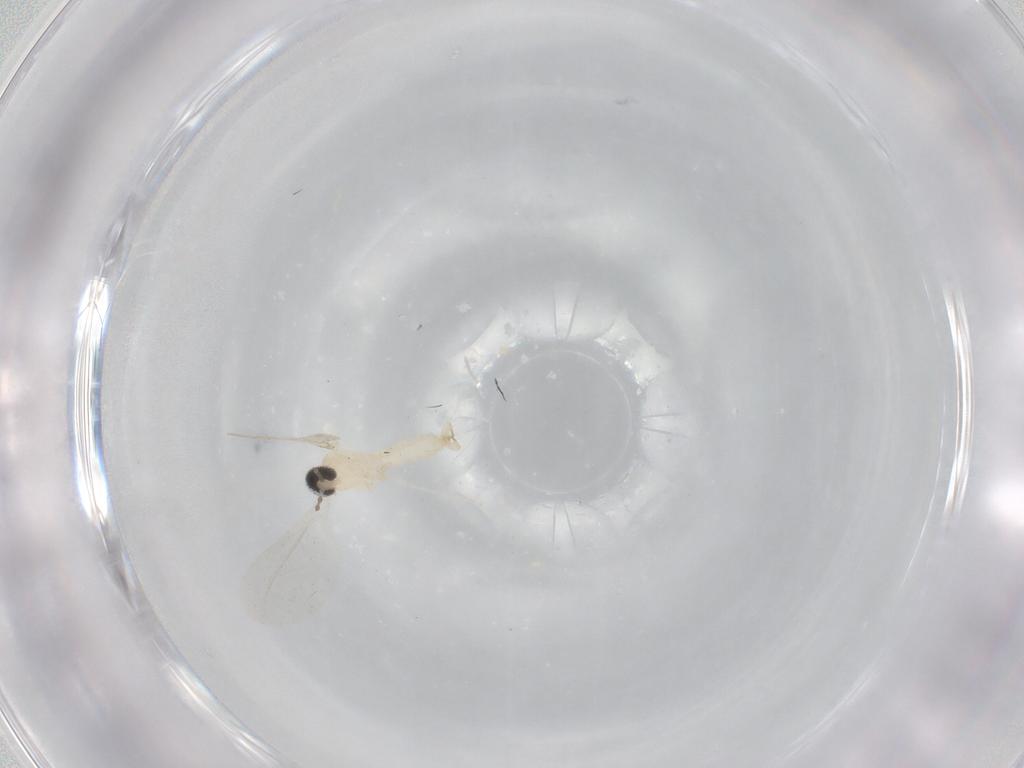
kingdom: Animalia
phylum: Arthropoda
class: Insecta
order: Diptera
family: Cecidomyiidae
